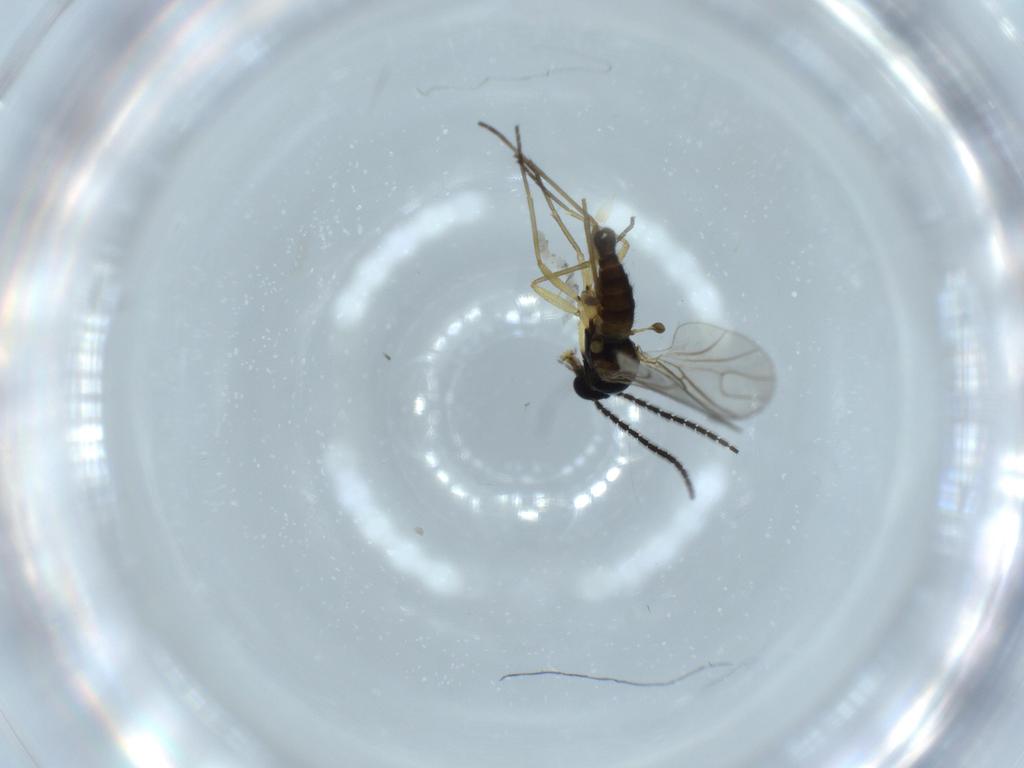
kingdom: Animalia
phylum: Arthropoda
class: Insecta
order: Diptera
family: Sciaridae
